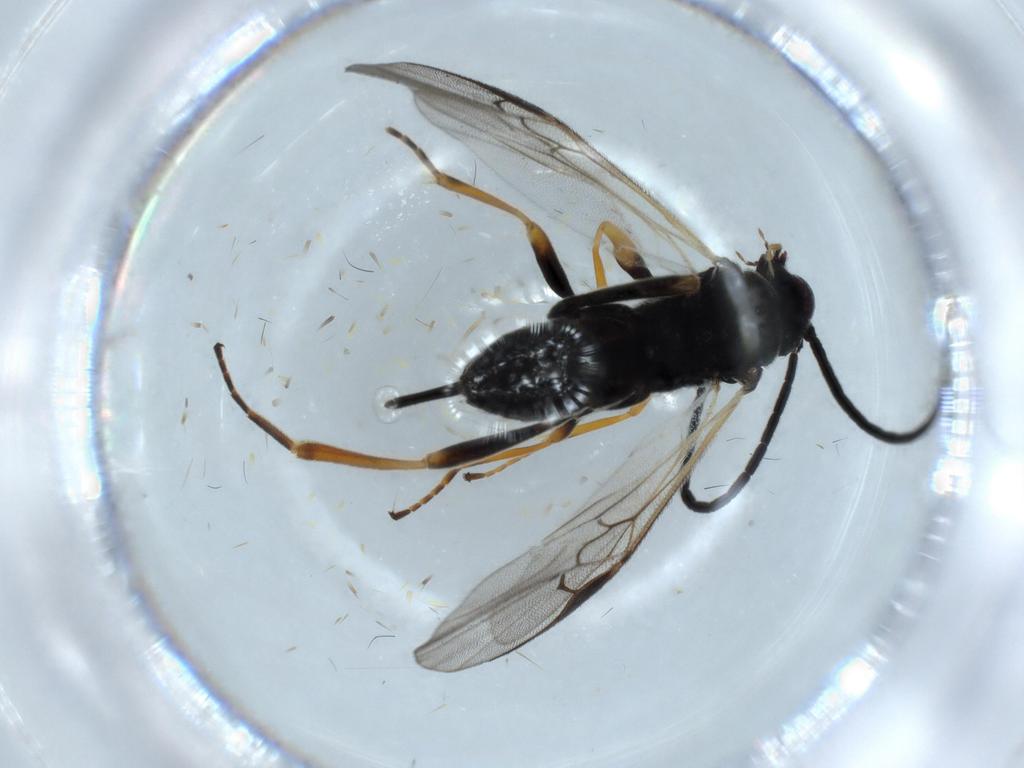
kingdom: Animalia
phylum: Arthropoda
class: Insecta
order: Hymenoptera
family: Braconidae
